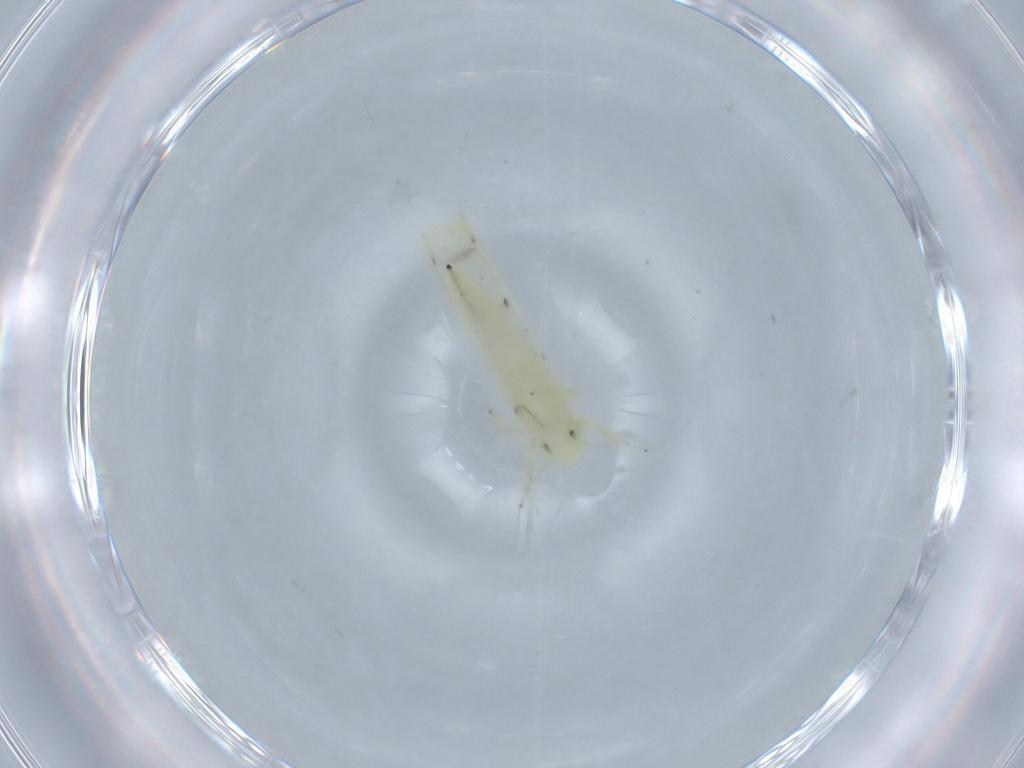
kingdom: Animalia
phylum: Arthropoda
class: Insecta
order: Hemiptera
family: Cicadellidae
